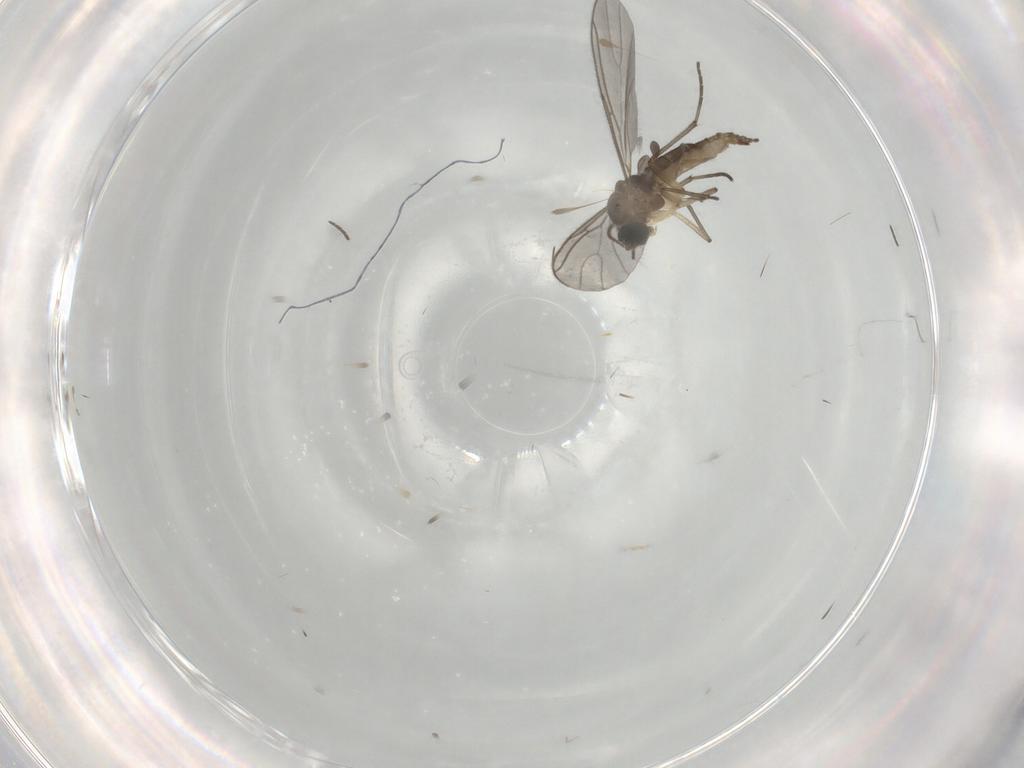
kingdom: Animalia
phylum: Arthropoda
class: Insecta
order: Diptera
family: Sciaridae
